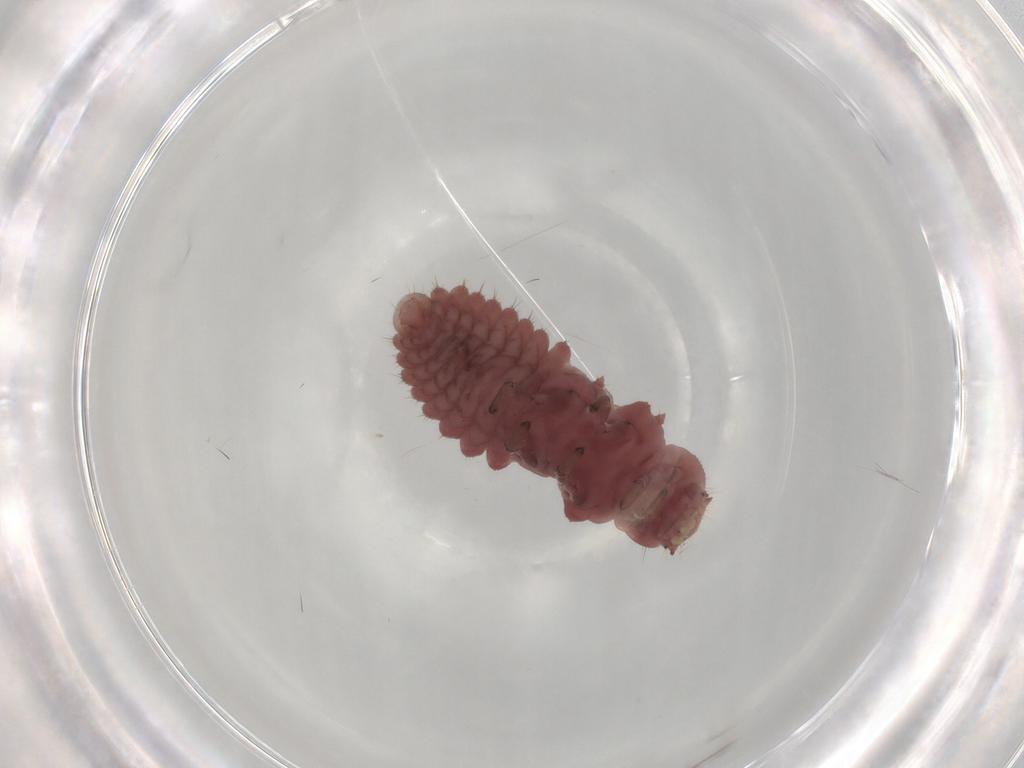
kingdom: Animalia
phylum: Arthropoda
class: Insecta
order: Coleoptera
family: Coccinellidae
